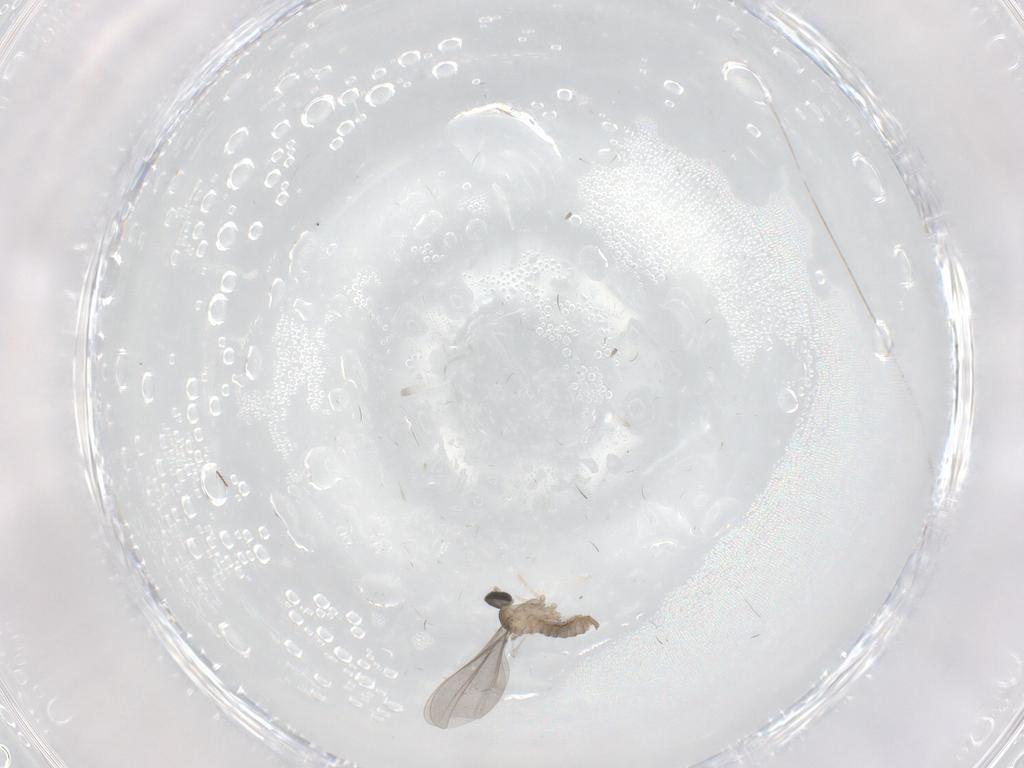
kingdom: Animalia
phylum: Arthropoda
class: Insecta
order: Diptera
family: Cecidomyiidae
